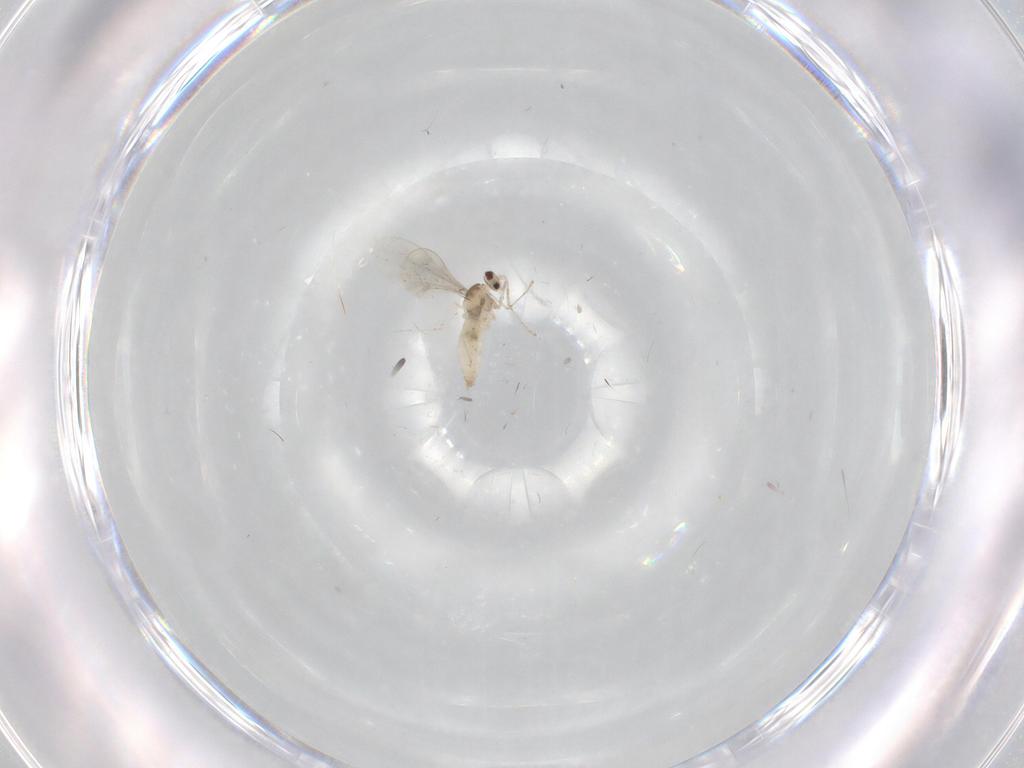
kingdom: Animalia
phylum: Arthropoda
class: Insecta
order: Diptera
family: Cecidomyiidae
